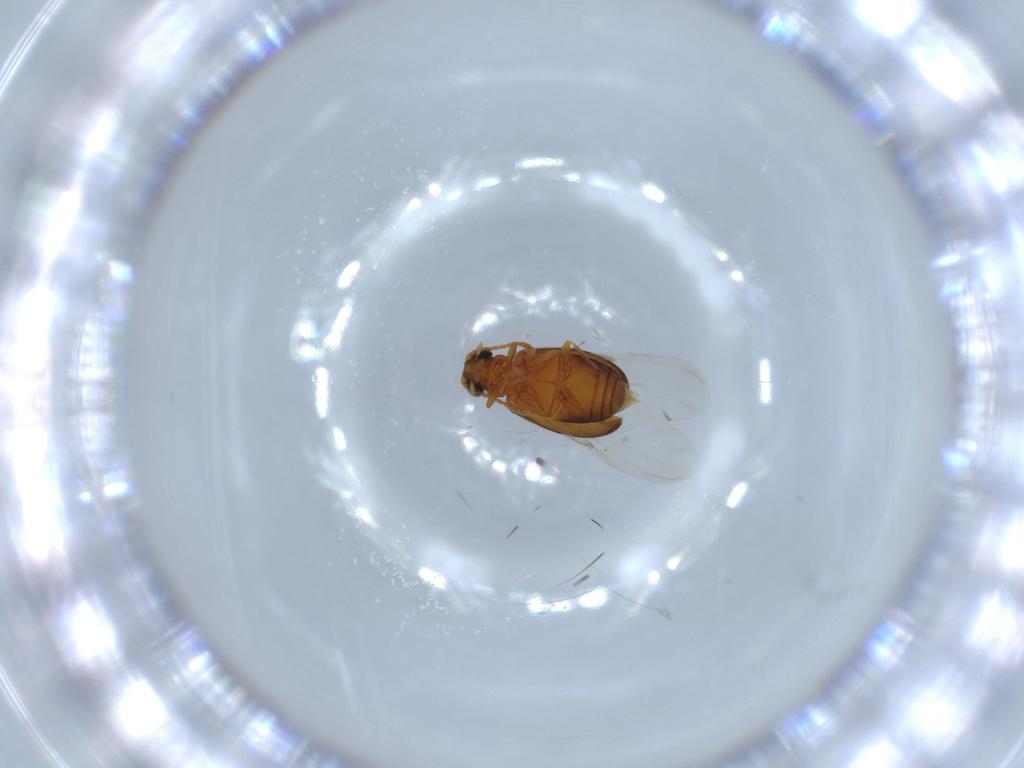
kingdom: Animalia
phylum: Arthropoda
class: Insecta
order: Coleoptera
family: Aderidae
